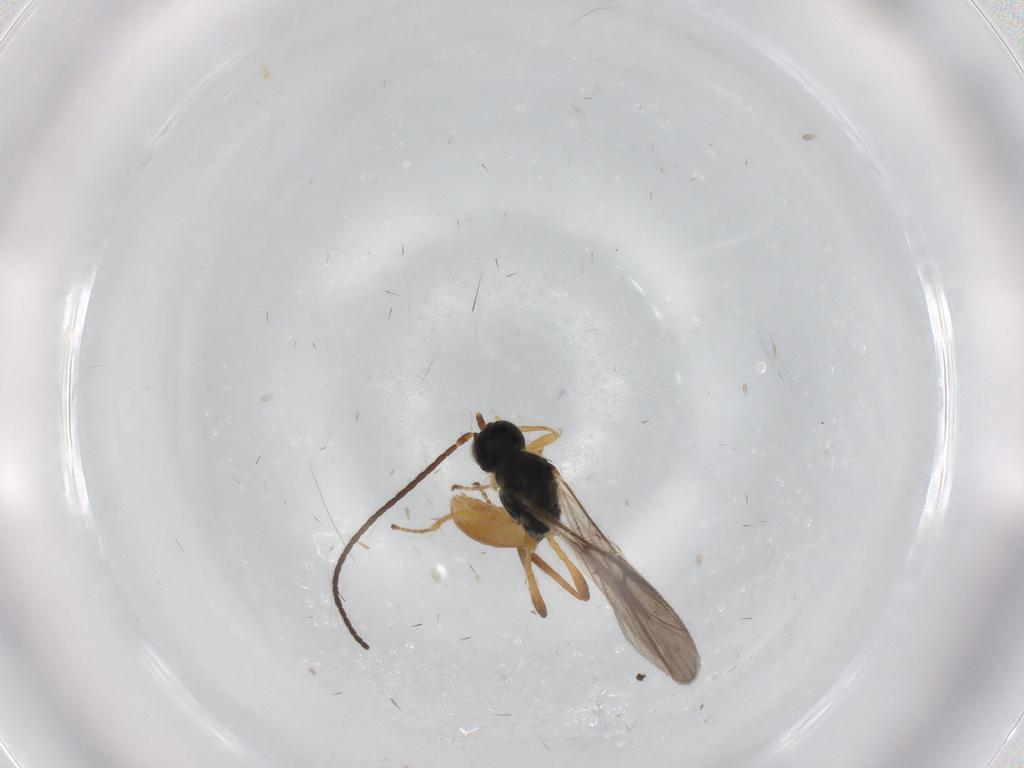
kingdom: Animalia
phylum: Arthropoda
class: Insecta
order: Hymenoptera
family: Braconidae
